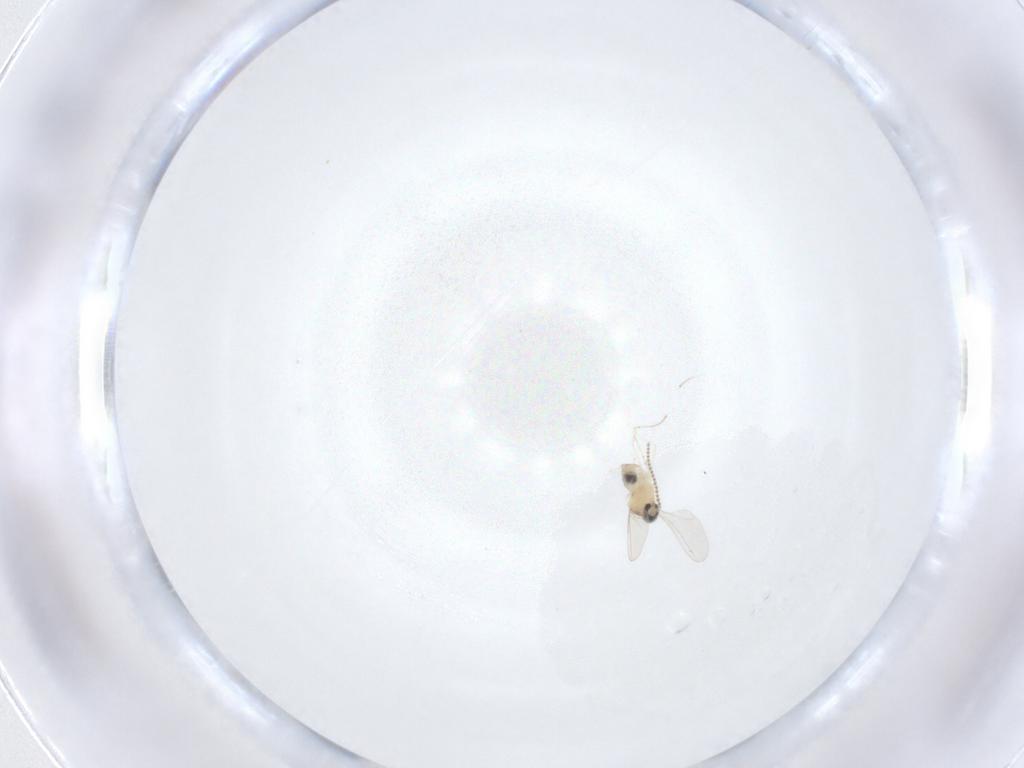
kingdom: Animalia
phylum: Arthropoda
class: Insecta
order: Diptera
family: Cecidomyiidae
